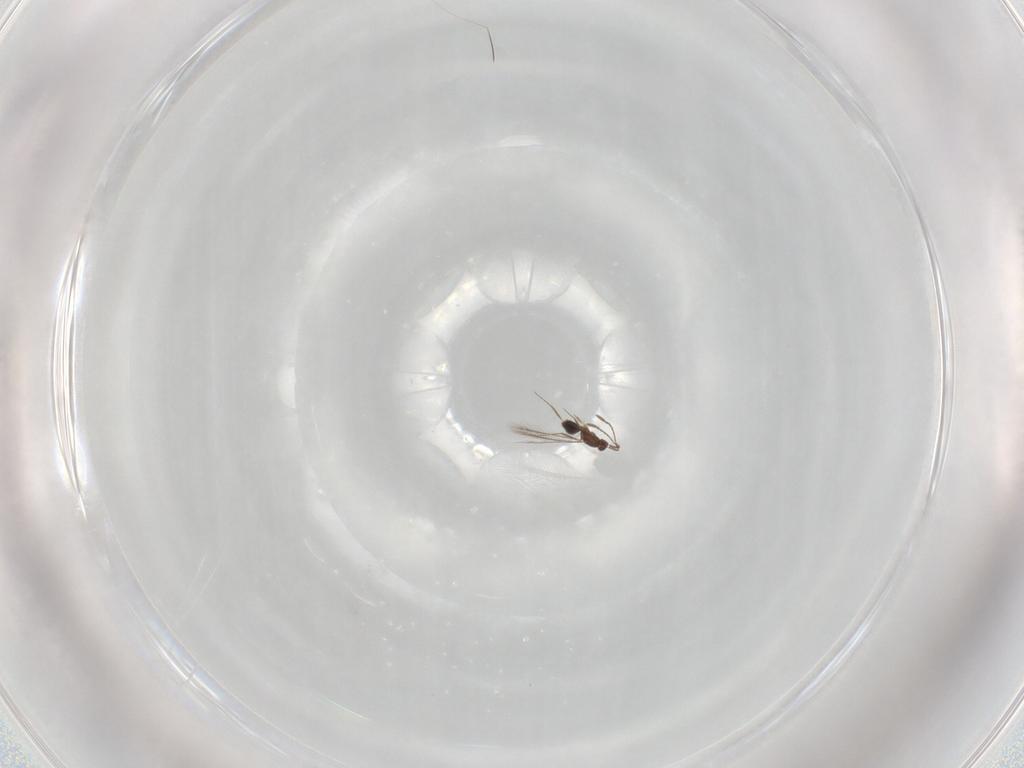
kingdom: Animalia
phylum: Arthropoda
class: Insecta
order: Hymenoptera
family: Mymaridae
